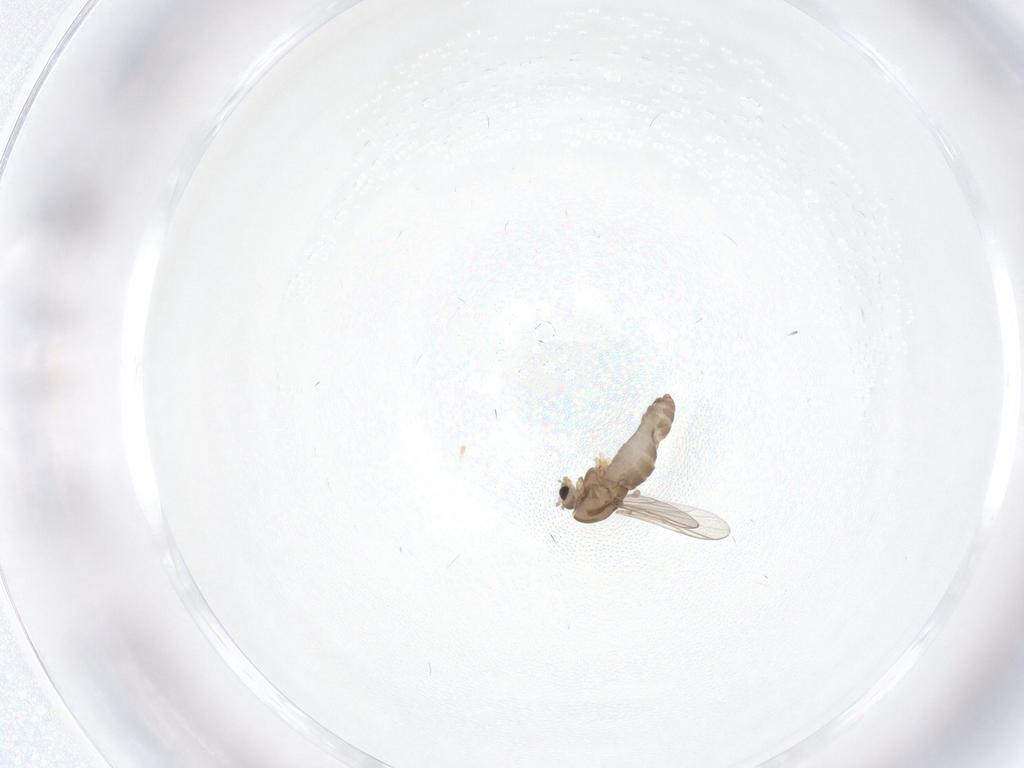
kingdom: Animalia
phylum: Arthropoda
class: Insecta
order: Diptera
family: Chironomidae
